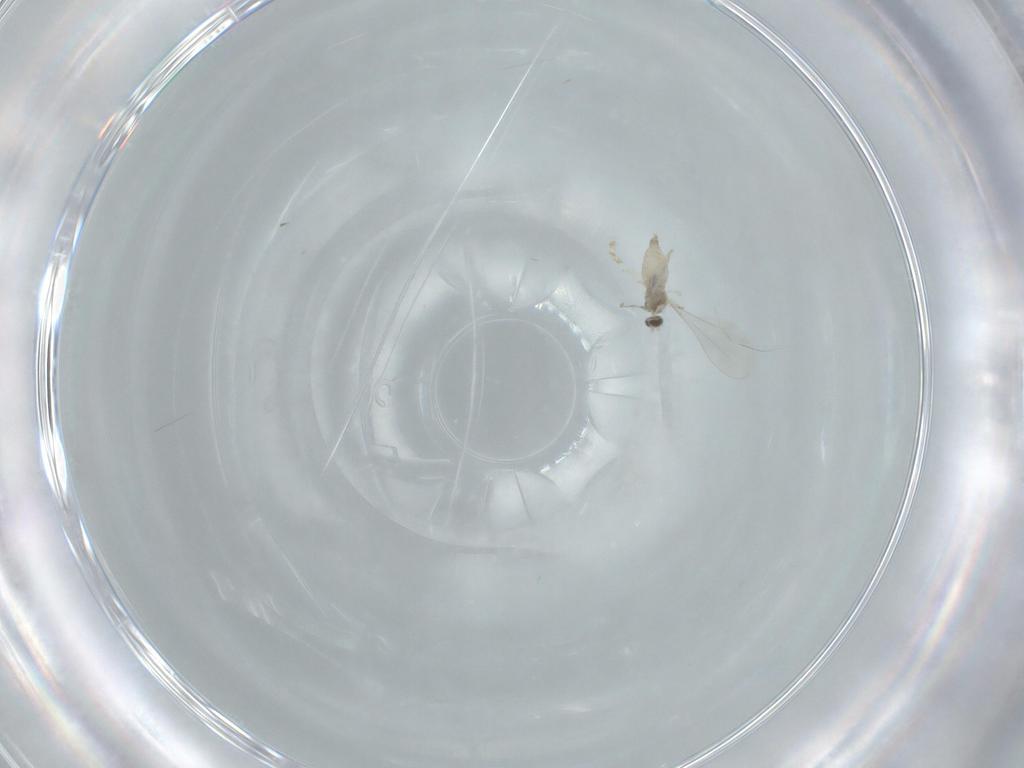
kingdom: Animalia
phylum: Arthropoda
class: Insecta
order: Diptera
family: Cecidomyiidae
